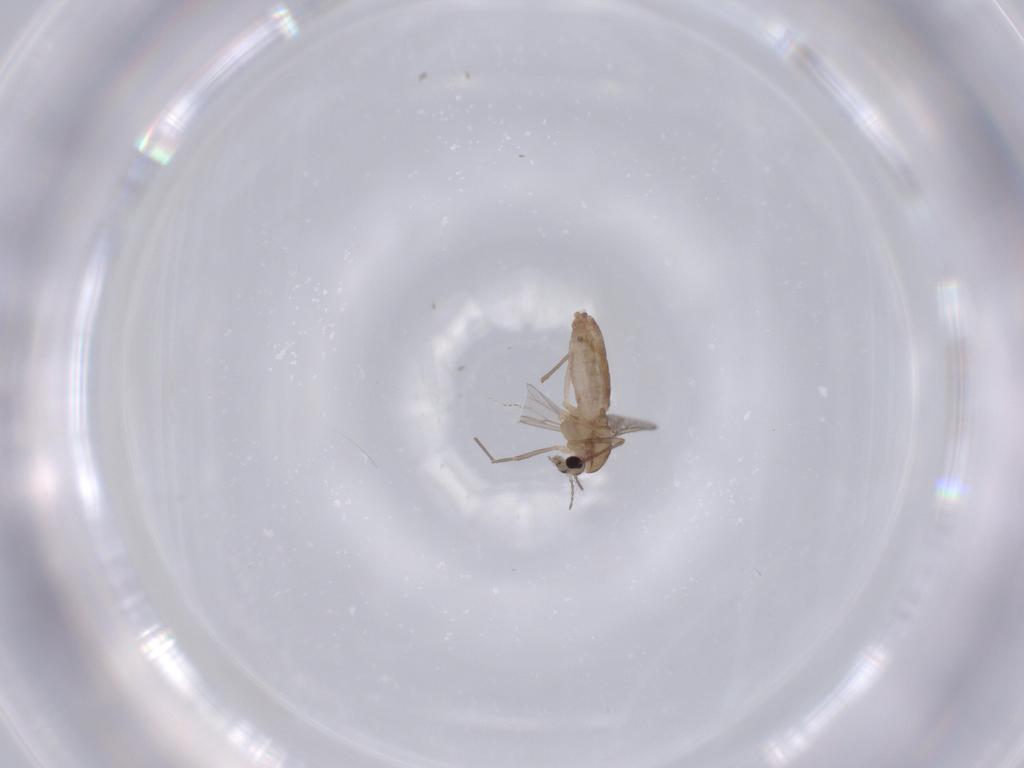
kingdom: Animalia
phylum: Arthropoda
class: Insecta
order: Diptera
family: Chironomidae
